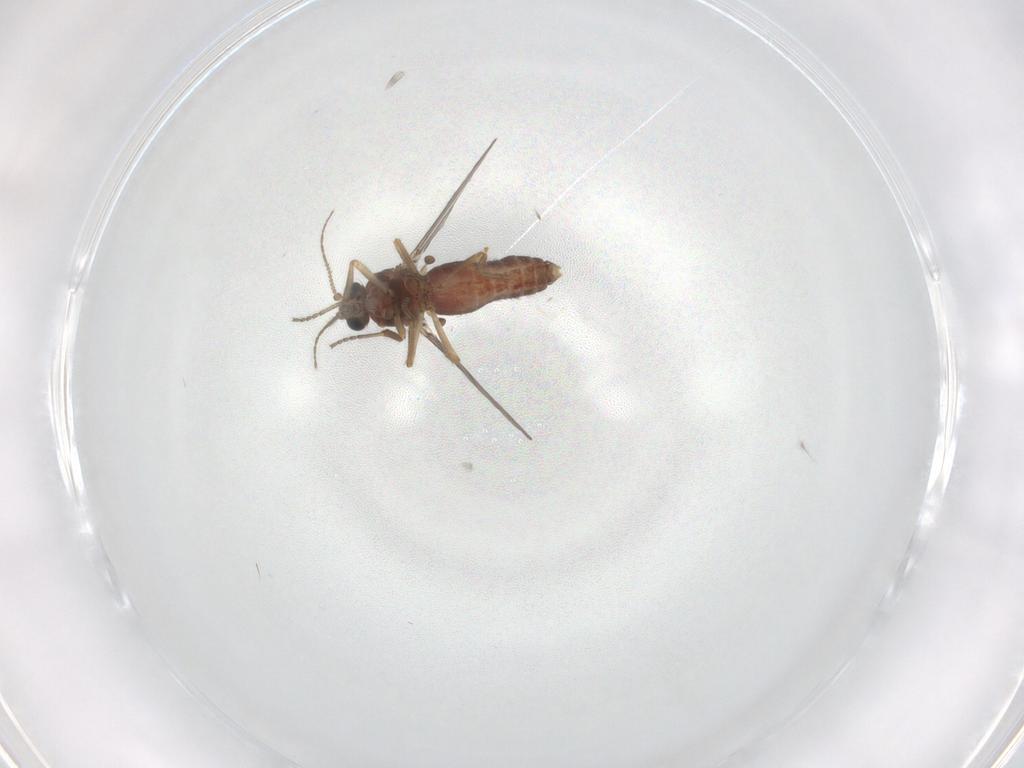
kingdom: Animalia
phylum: Arthropoda
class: Insecta
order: Diptera
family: Ceratopogonidae
